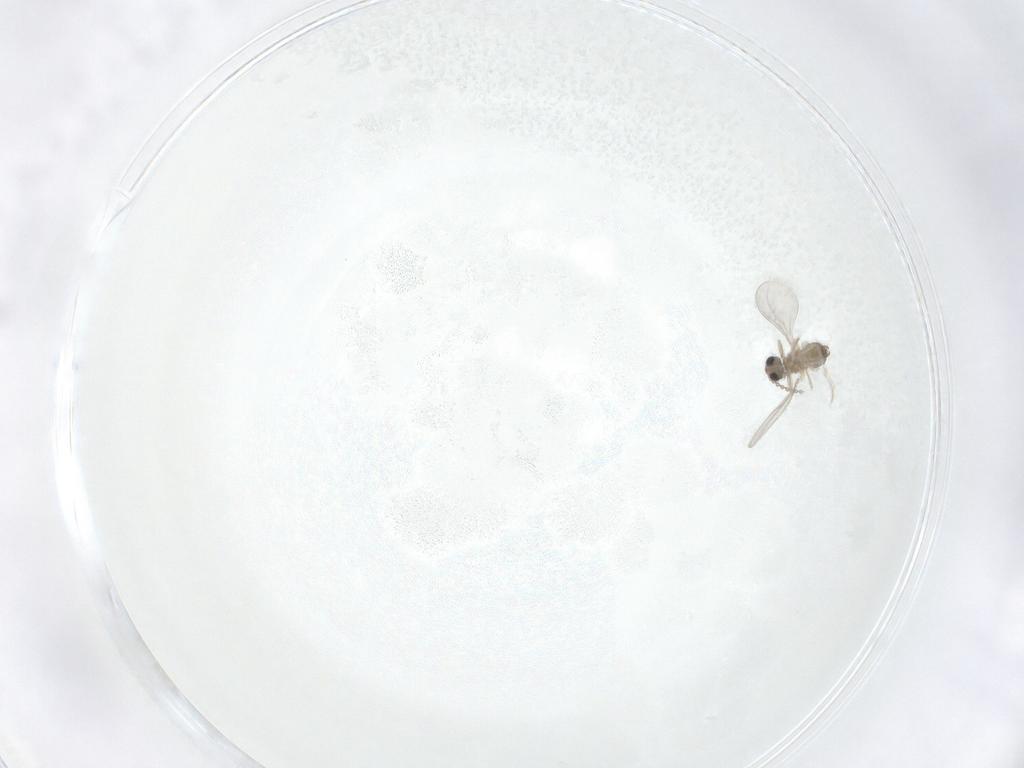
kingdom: Animalia
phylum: Arthropoda
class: Insecta
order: Diptera
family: Cecidomyiidae
